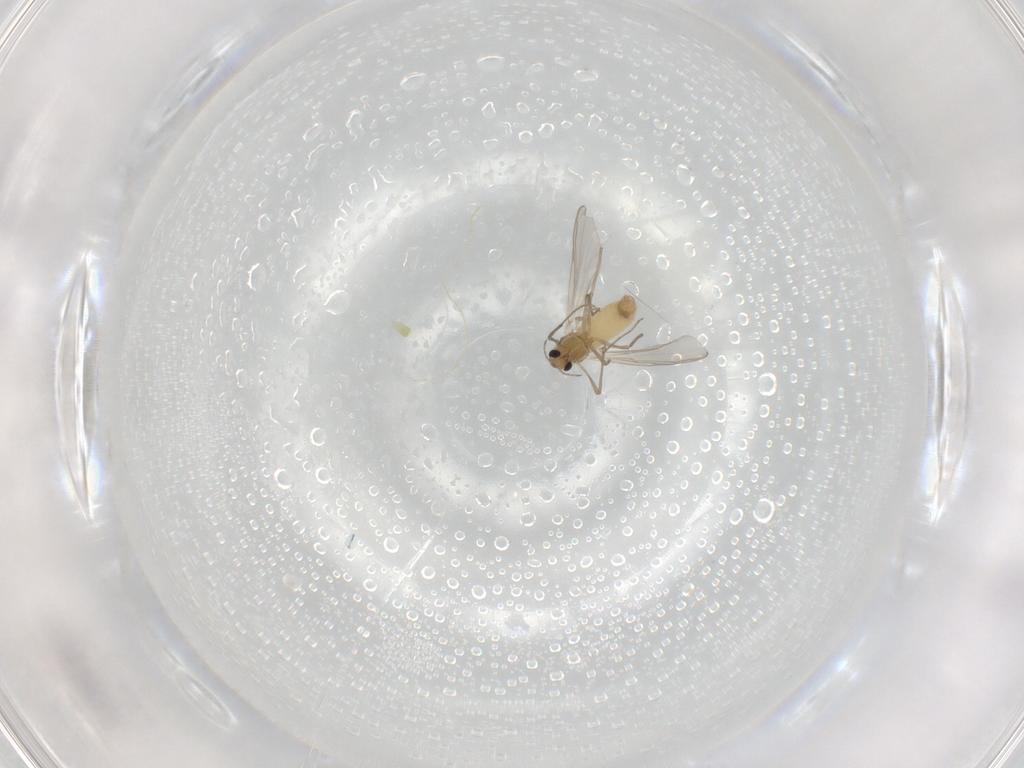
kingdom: Animalia
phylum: Arthropoda
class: Insecta
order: Diptera
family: Chironomidae
